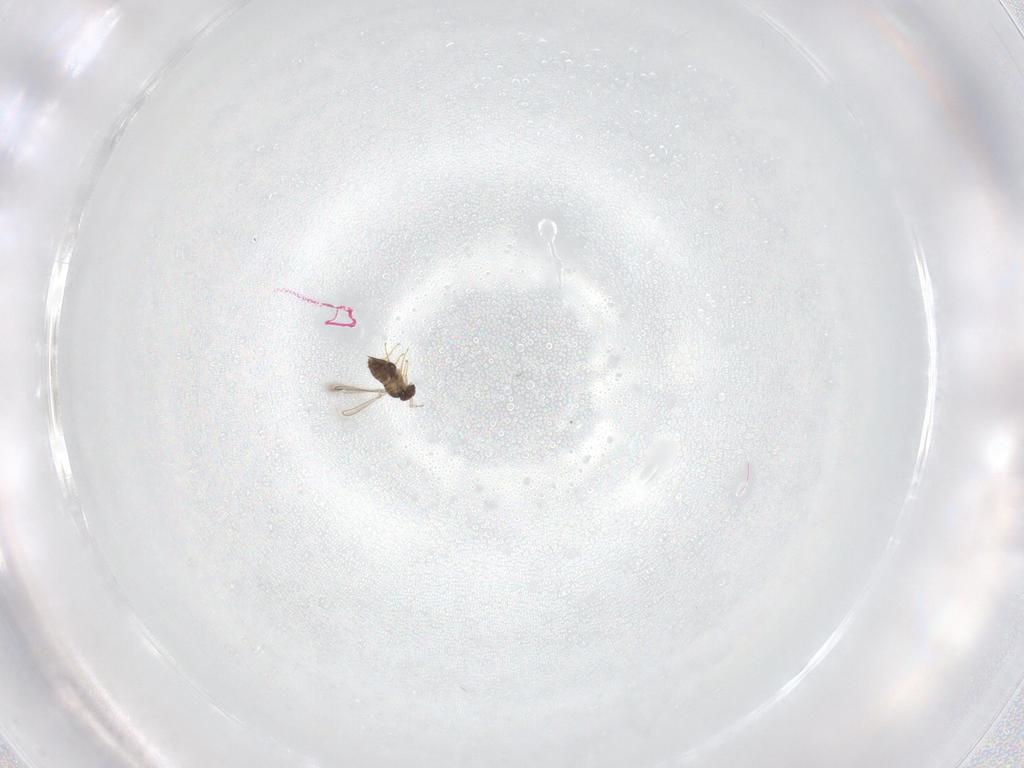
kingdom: Animalia
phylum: Arthropoda
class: Insecta
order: Hymenoptera
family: Mymaridae
